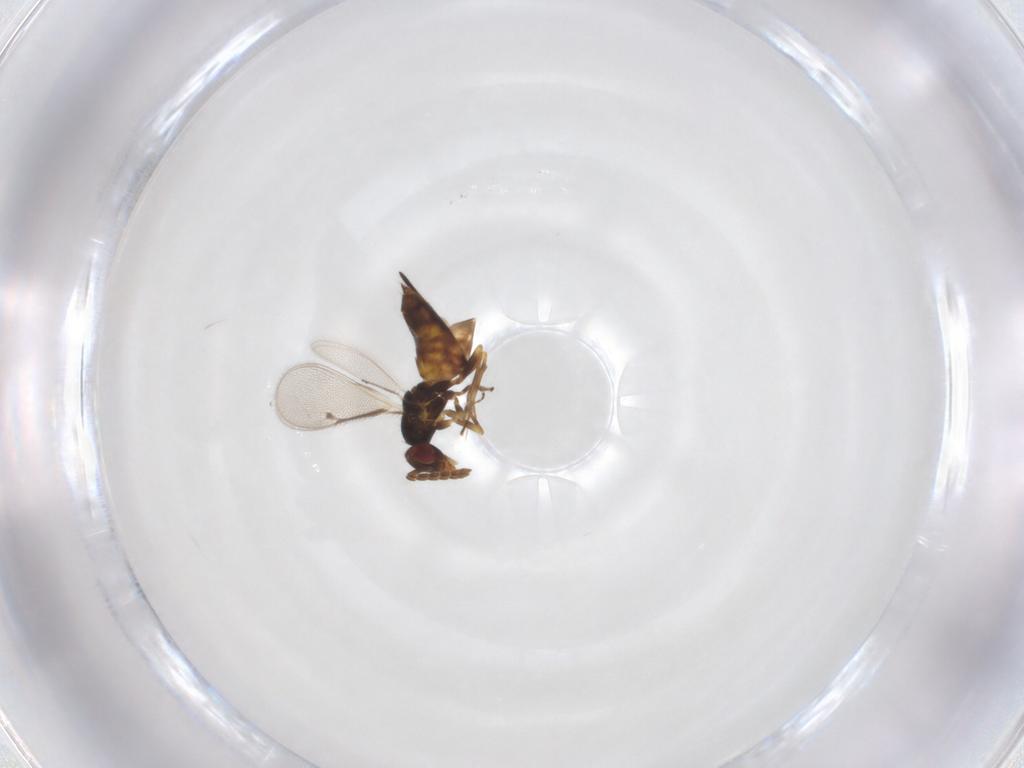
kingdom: Animalia
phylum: Arthropoda
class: Insecta
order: Hymenoptera
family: Eulophidae
